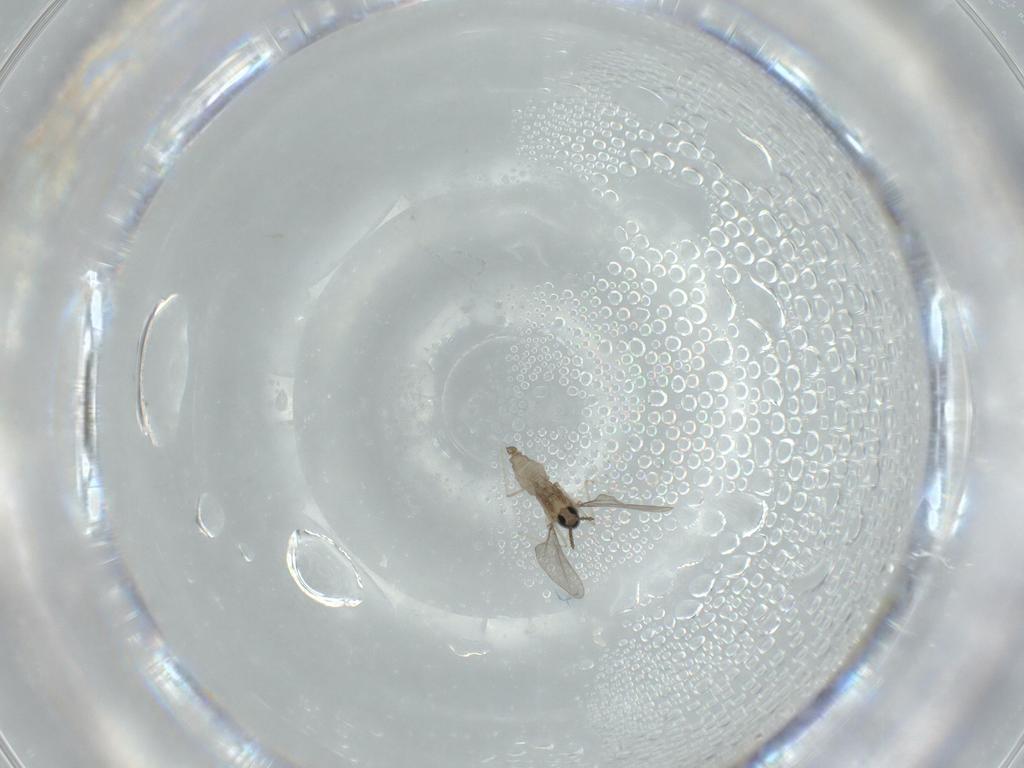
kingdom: Animalia
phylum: Arthropoda
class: Insecta
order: Diptera
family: Cecidomyiidae
